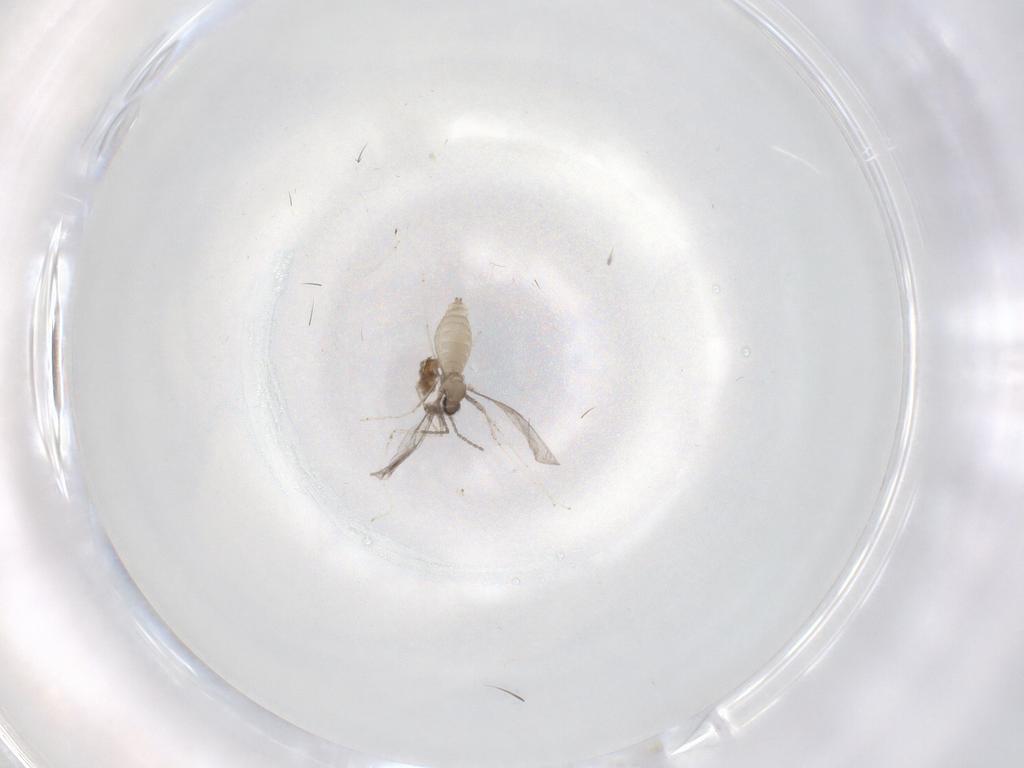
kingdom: Animalia
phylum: Arthropoda
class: Insecta
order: Diptera
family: Cecidomyiidae
